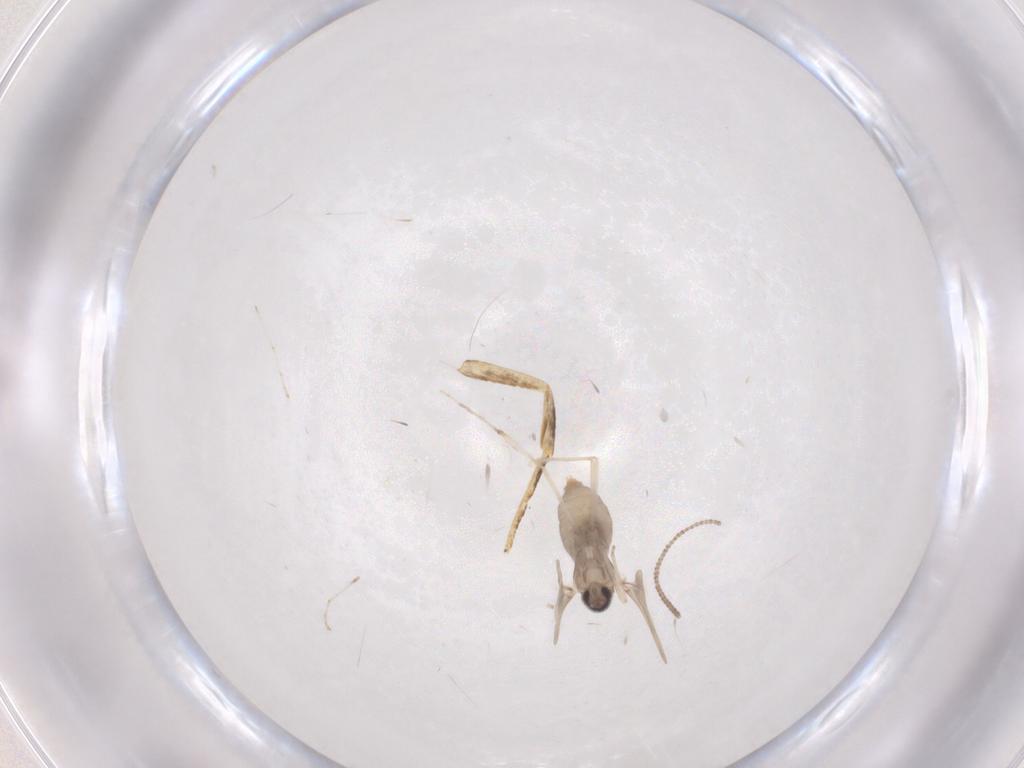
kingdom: Animalia
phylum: Arthropoda
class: Insecta
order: Diptera
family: Cecidomyiidae
